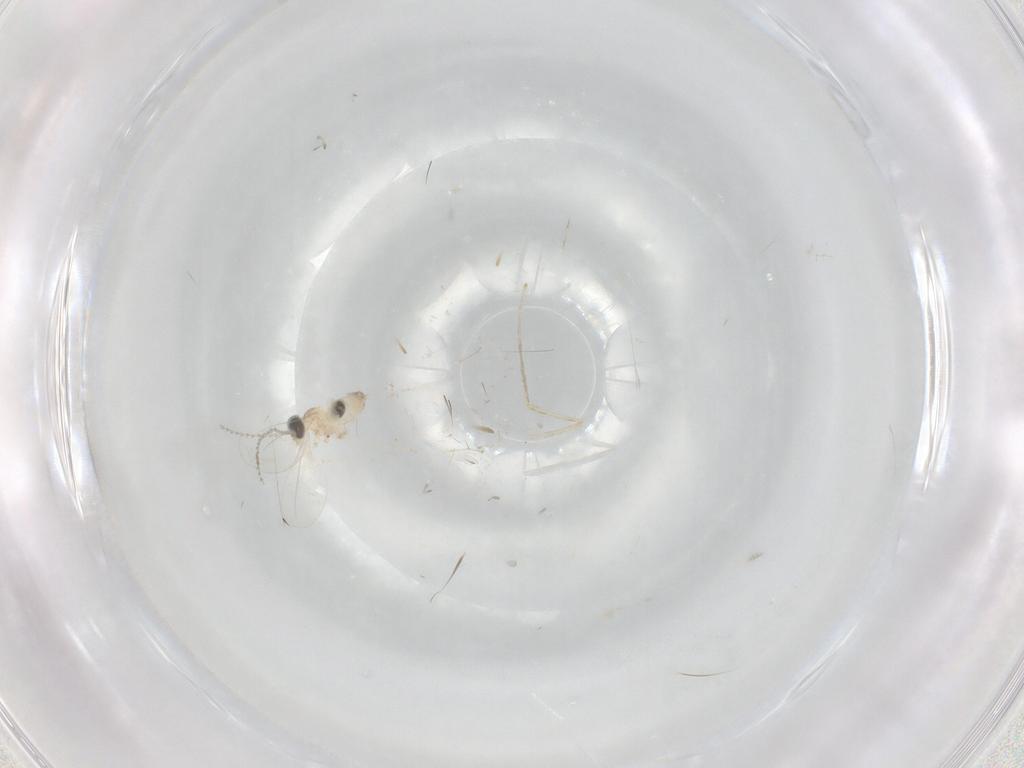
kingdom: Animalia
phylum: Arthropoda
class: Insecta
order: Diptera
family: Cecidomyiidae
